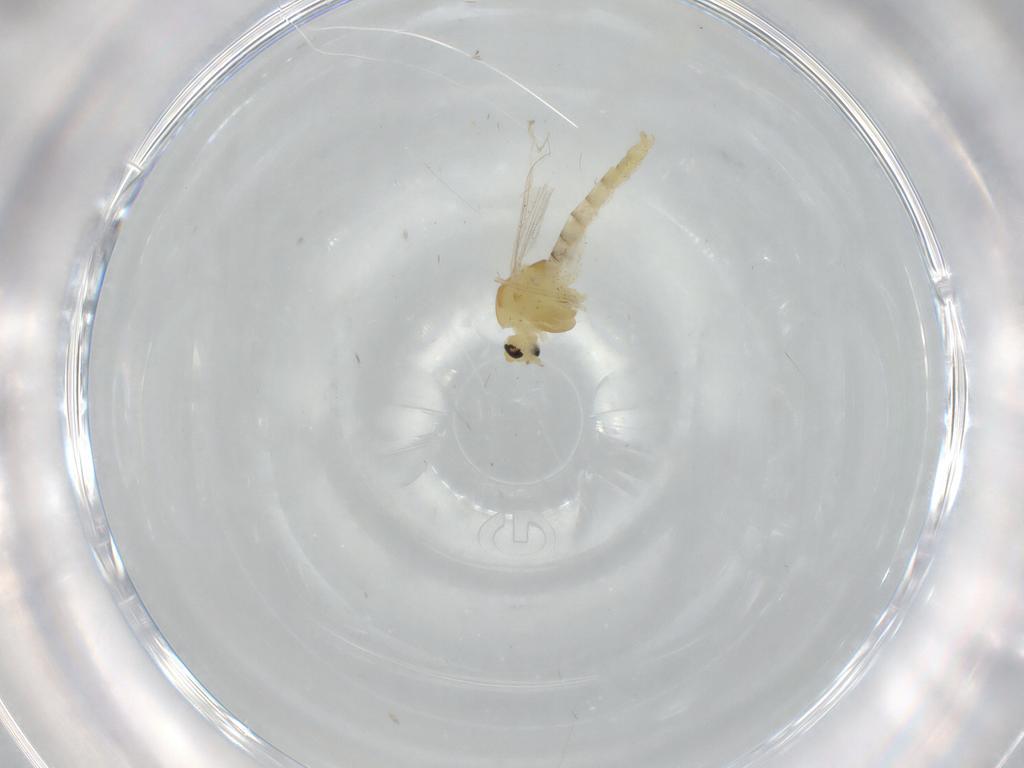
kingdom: Animalia
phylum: Arthropoda
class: Insecta
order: Diptera
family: Chironomidae
